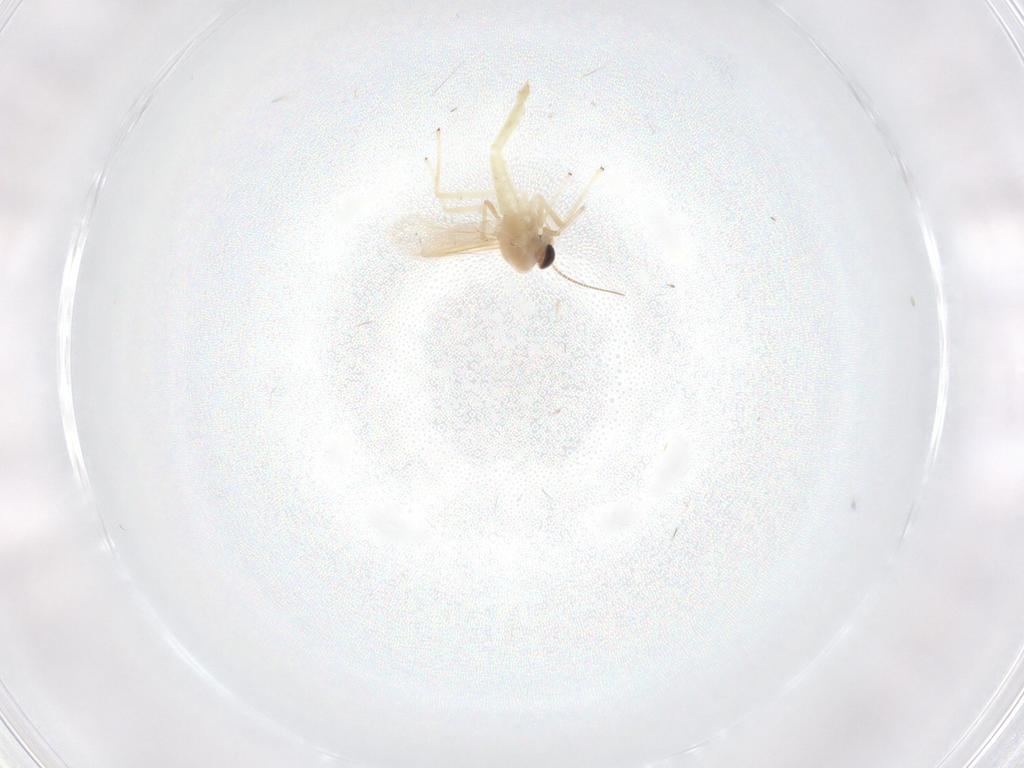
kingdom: Animalia
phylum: Arthropoda
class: Insecta
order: Diptera
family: Chironomidae
